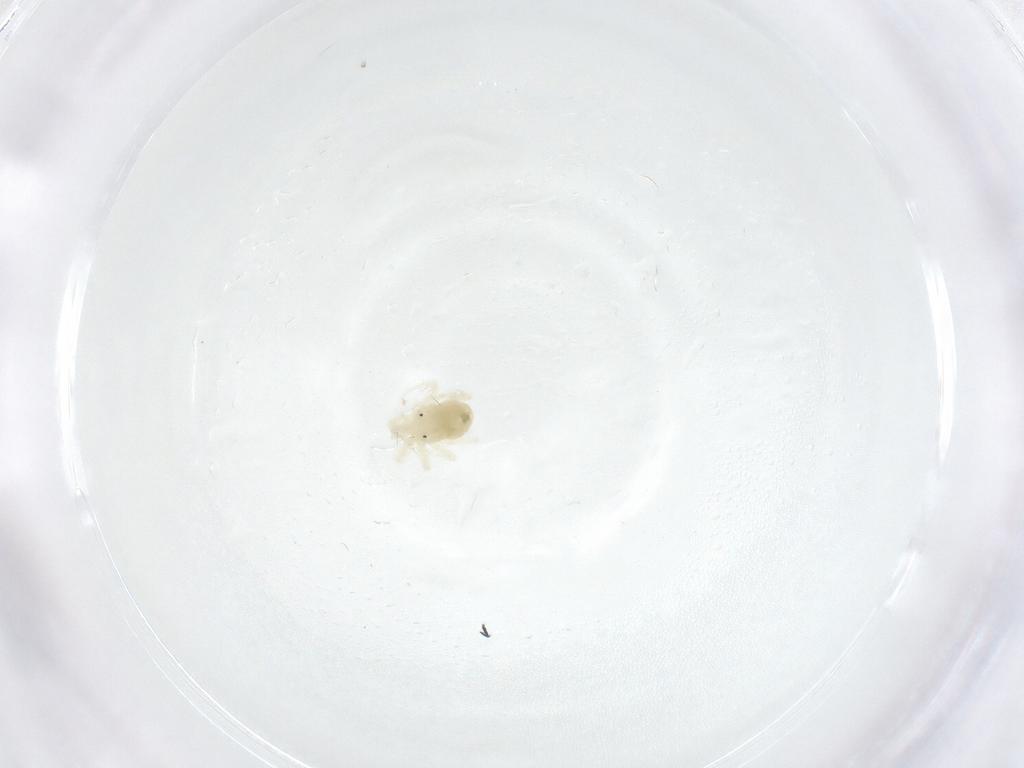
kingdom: Animalia
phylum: Arthropoda
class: Arachnida
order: Trombidiformes
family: Anystidae
